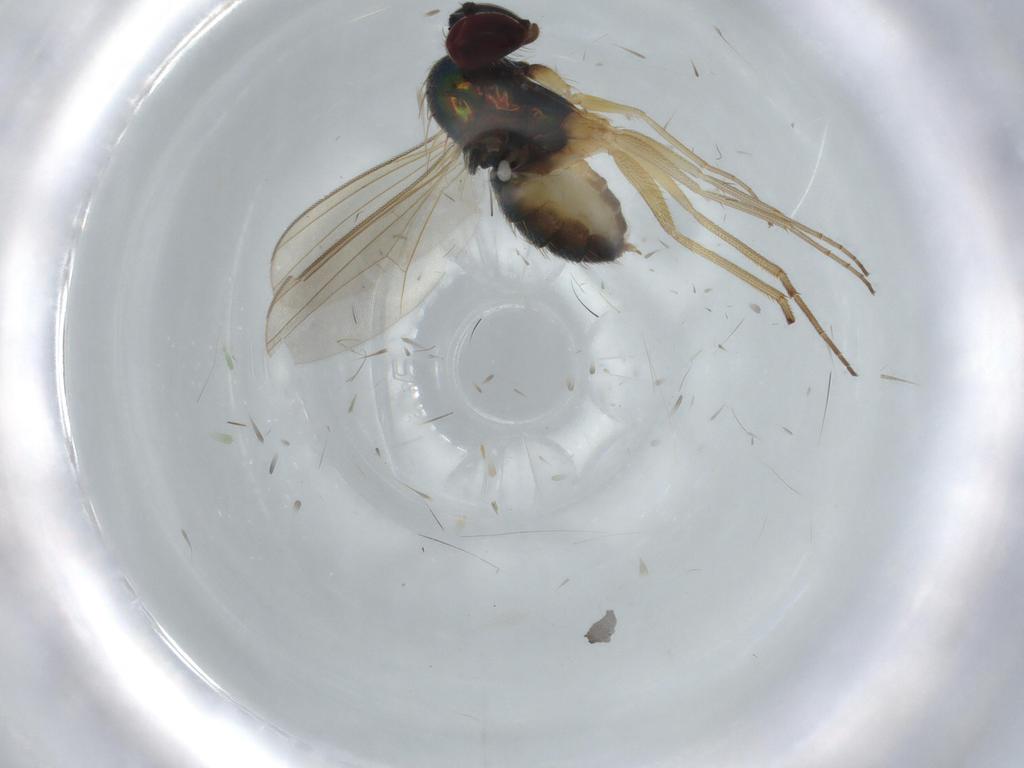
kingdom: Animalia
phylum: Arthropoda
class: Insecta
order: Diptera
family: Dolichopodidae
